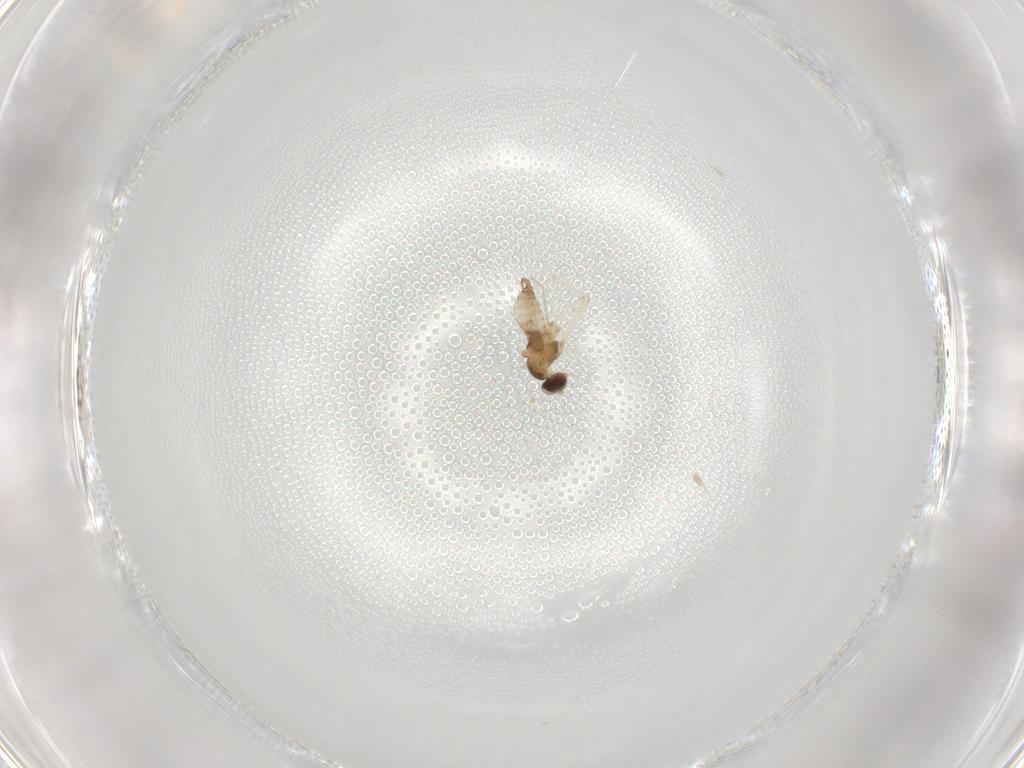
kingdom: Animalia
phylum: Arthropoda
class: Insecta
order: Diptera
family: Cecidomyiidae
